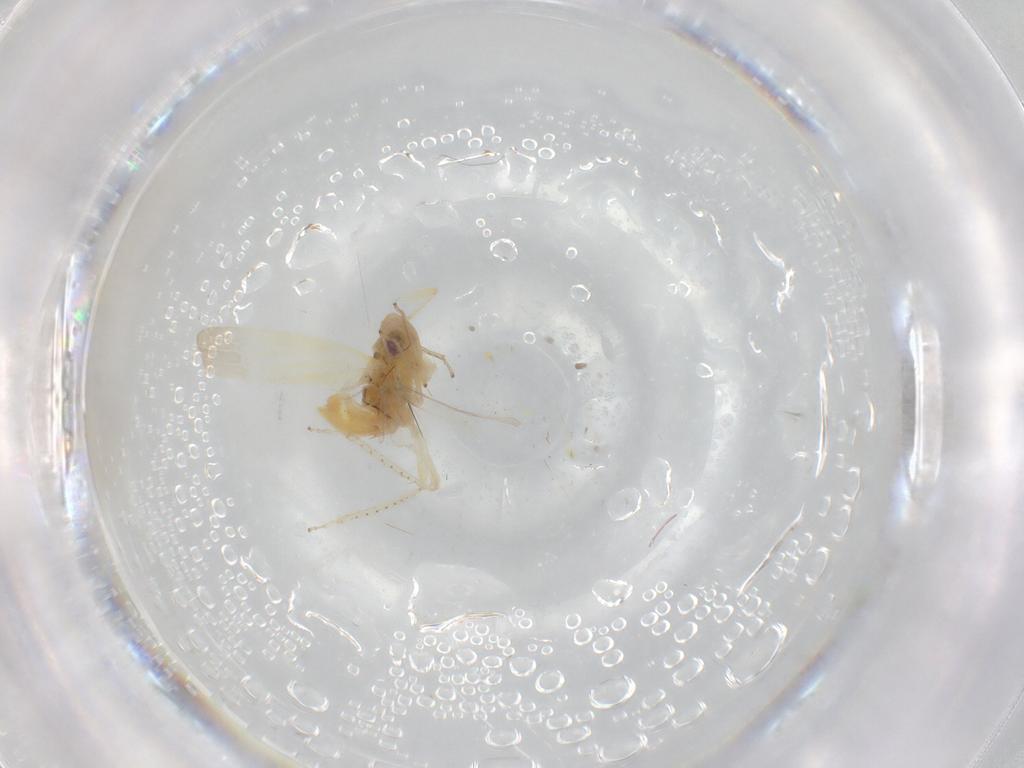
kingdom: Animalia
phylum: Arthropoda
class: Insecta
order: Hemiptera
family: Cicadellidae
